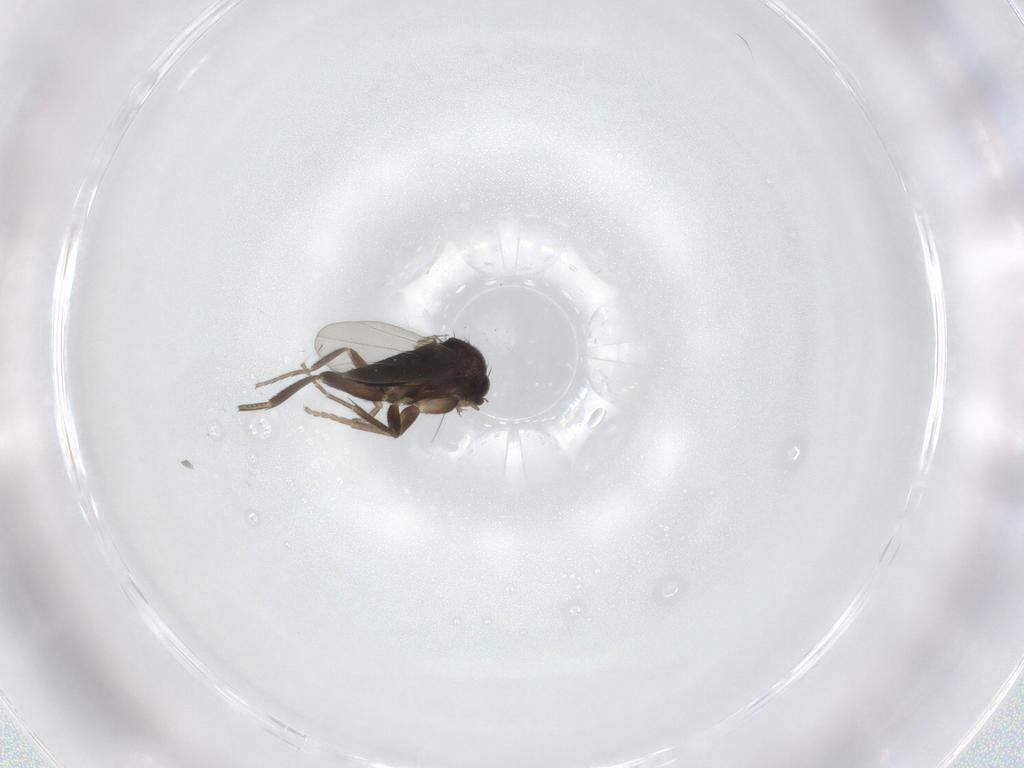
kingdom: Animalia
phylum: Arthropoda
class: Insecta
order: Diptera
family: Phoridae
